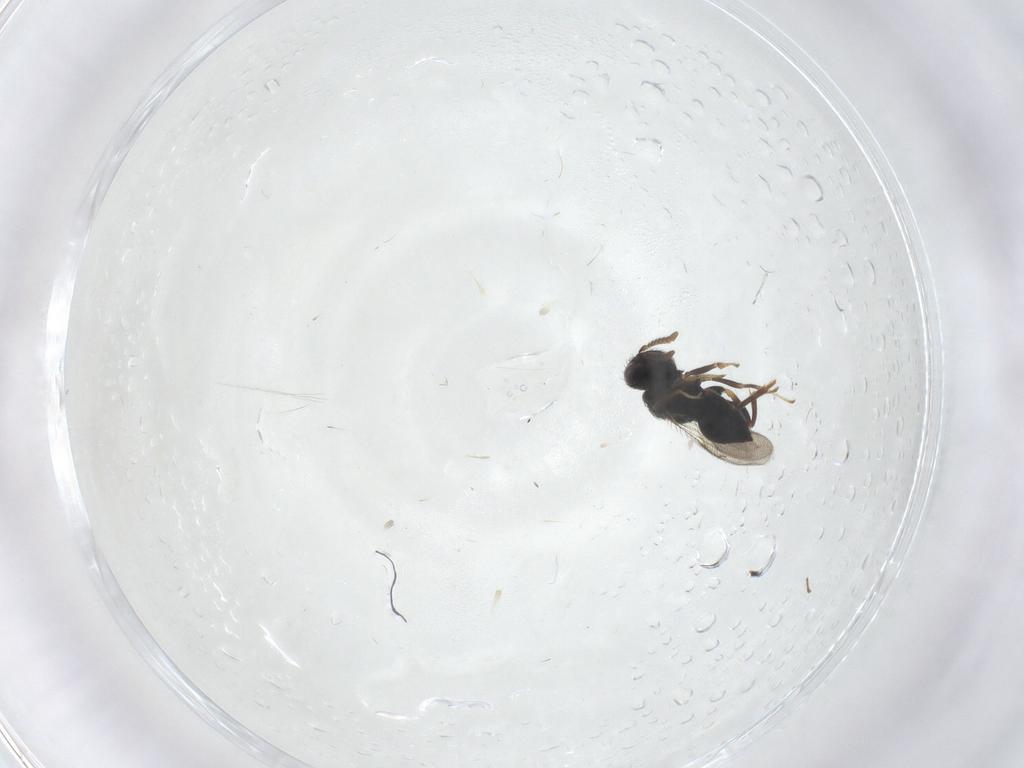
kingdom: Animalia
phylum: Arthropoda
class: Insecta
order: Hymenoptera
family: Pteromalidae
